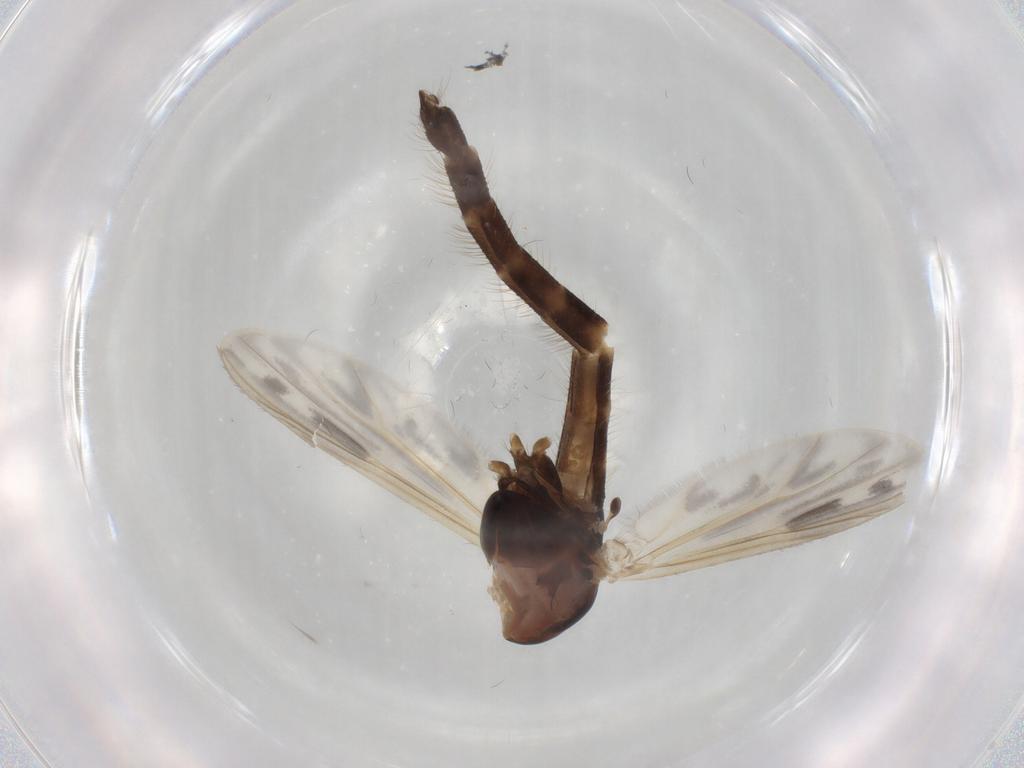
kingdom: Animalia
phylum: Arthropoda
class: Insecta
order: Diptera
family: Chironomidae
